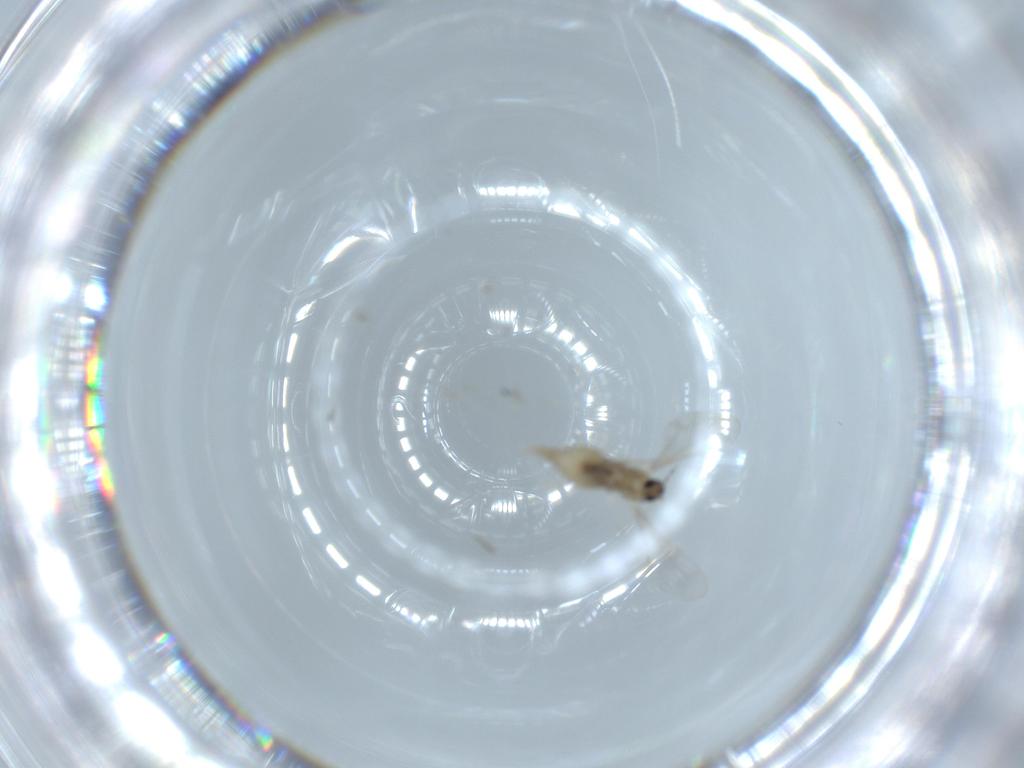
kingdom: Animalia
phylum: Arthropoda
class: Insecta
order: Diptera
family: Cecidomyiidae
